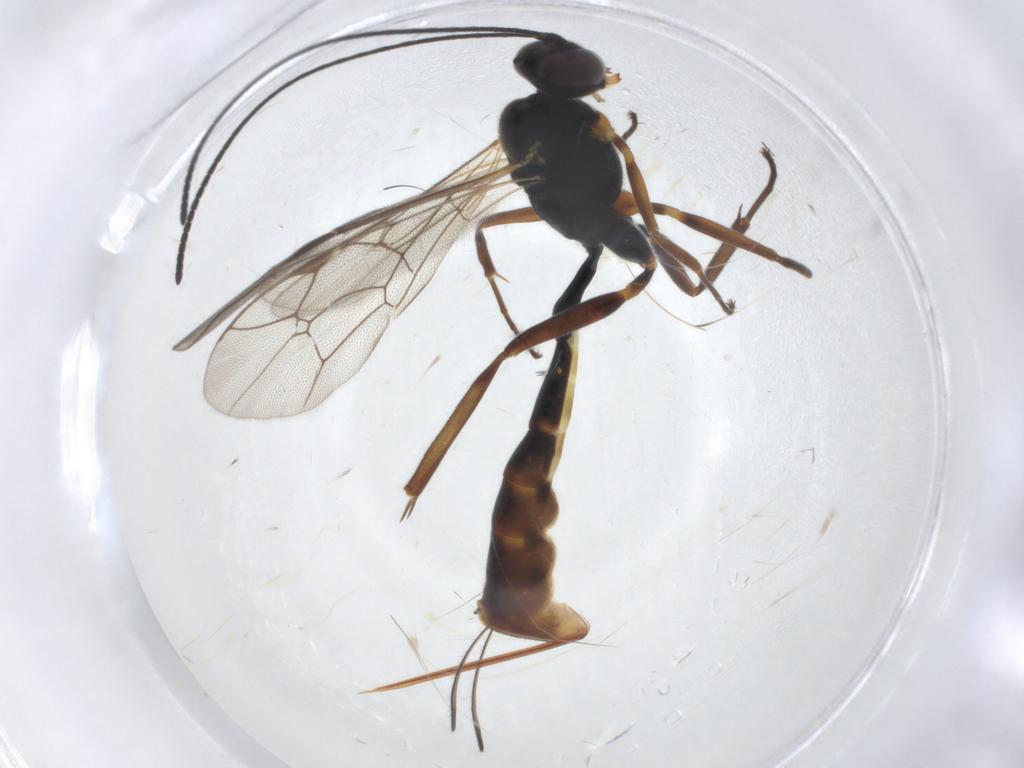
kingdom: Animalia
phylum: Arthropoda
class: Insecta
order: Hymenoptera
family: Ichneumonidae
